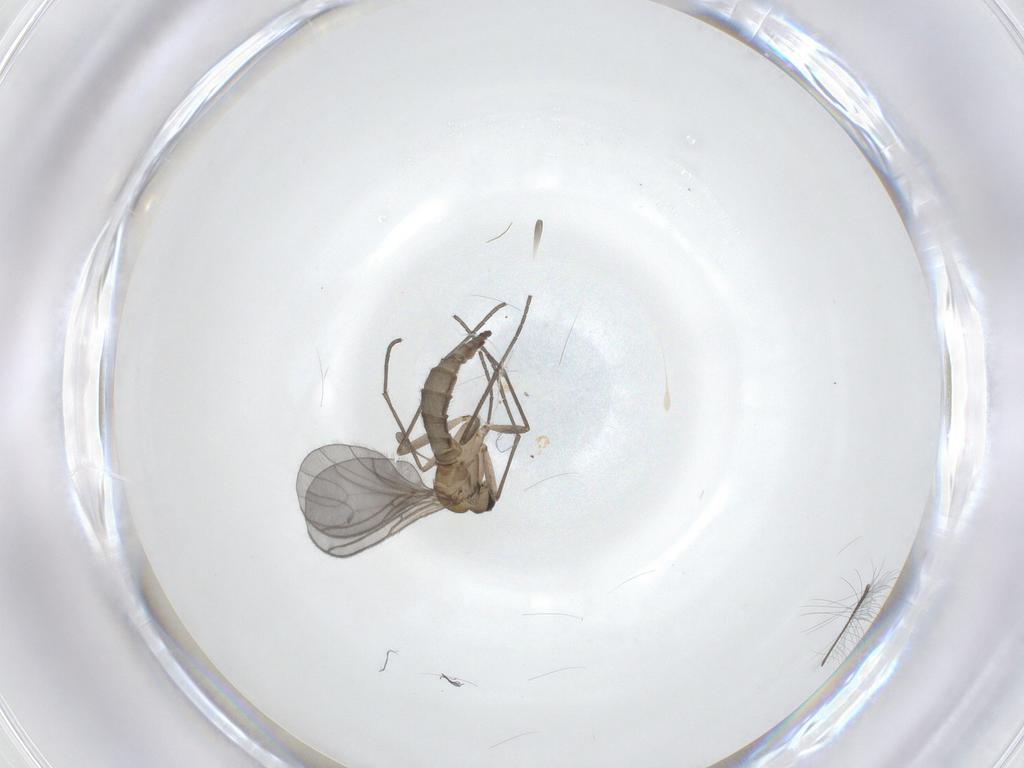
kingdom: Animalia
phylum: Arthropoda
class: Insecta
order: Diptera
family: Sciaridae
